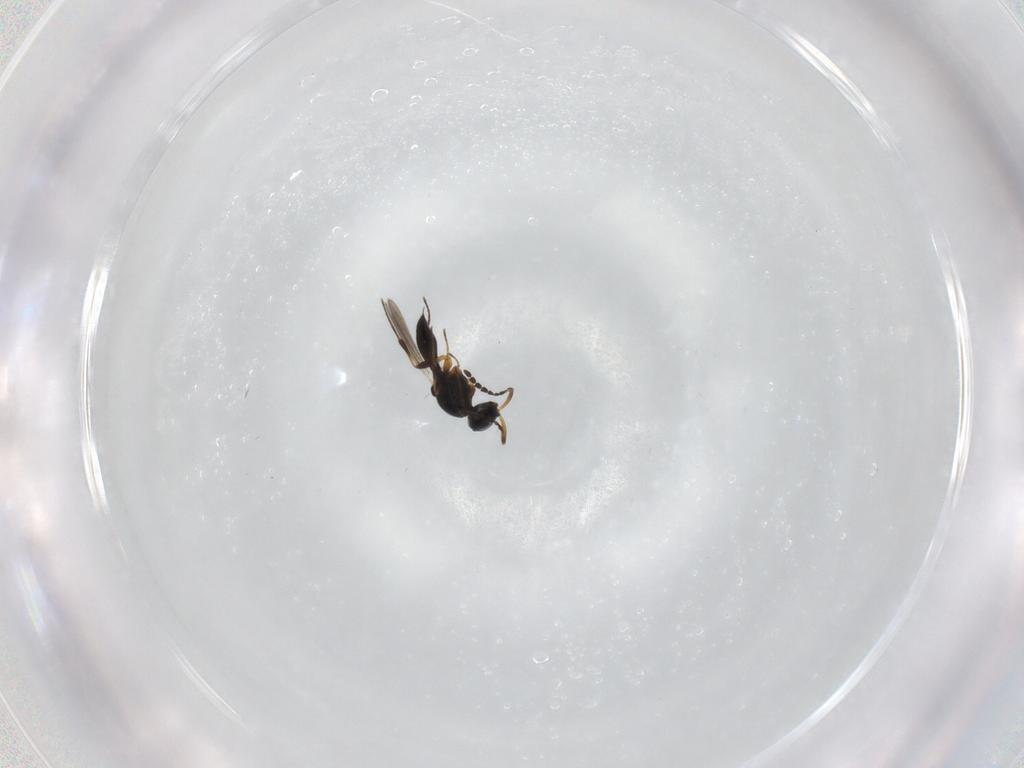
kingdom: Animalia
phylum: Arthropoda
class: Insecta
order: Hymenoptera
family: Platygastridae
